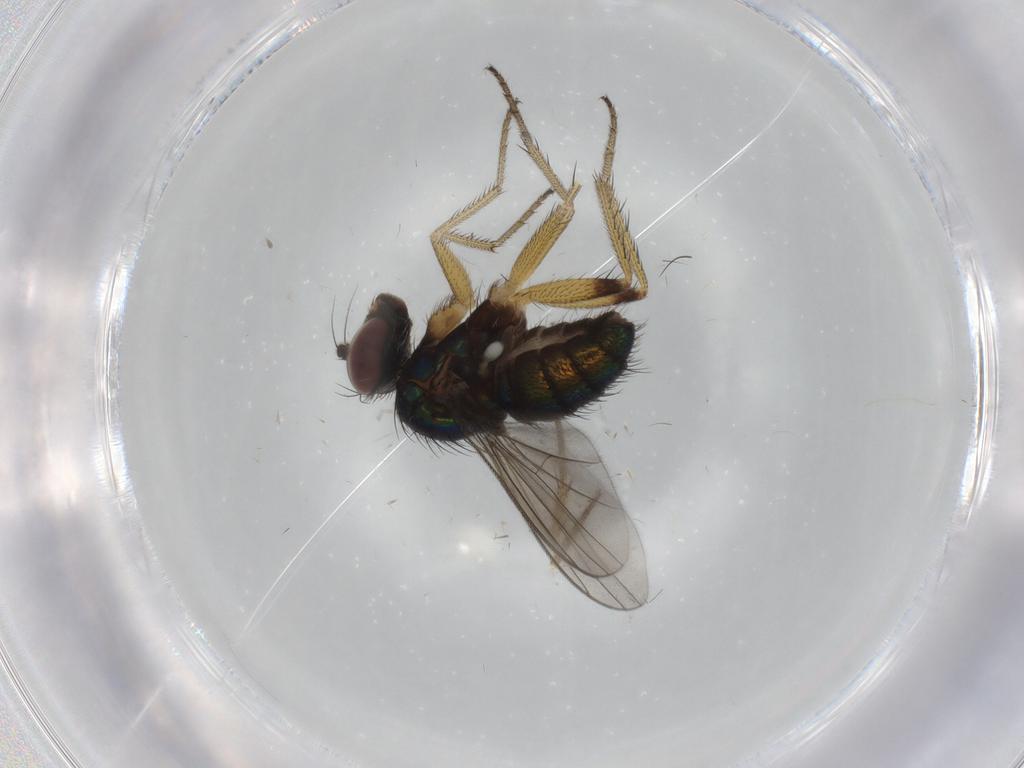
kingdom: Animalia
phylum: Arthropoda
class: Insecta
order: Diptera
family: Dolichopodidae
